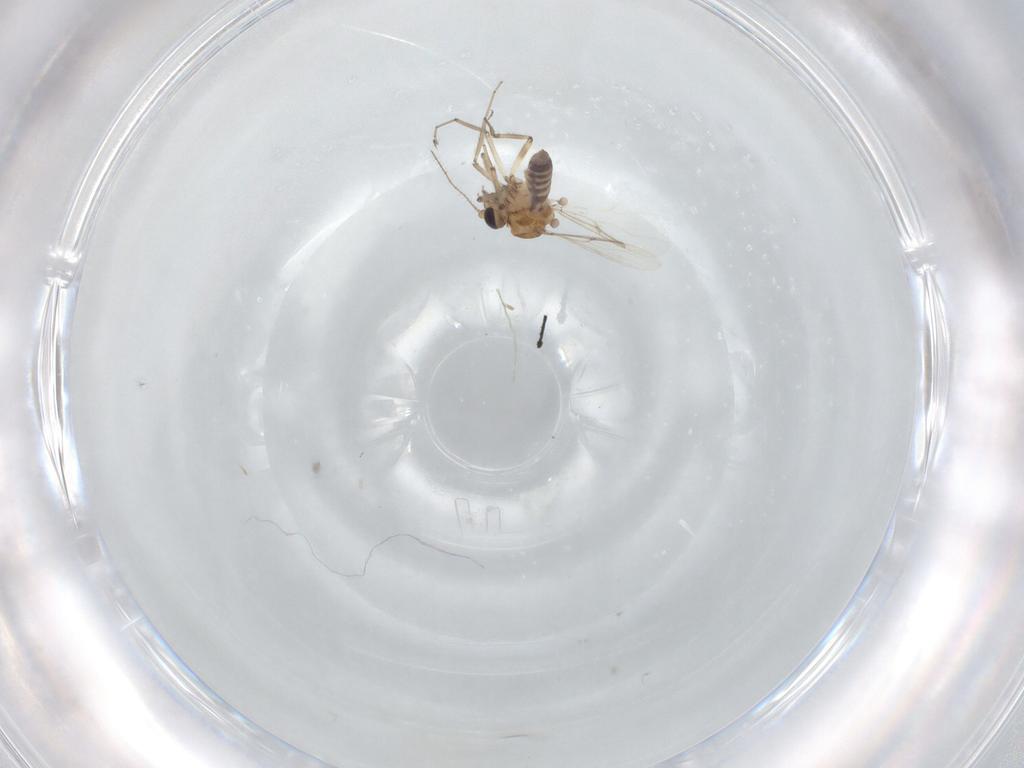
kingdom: Animalia
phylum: Arthropoda
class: Insecta
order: Diptera
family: Ceratopogonidae
